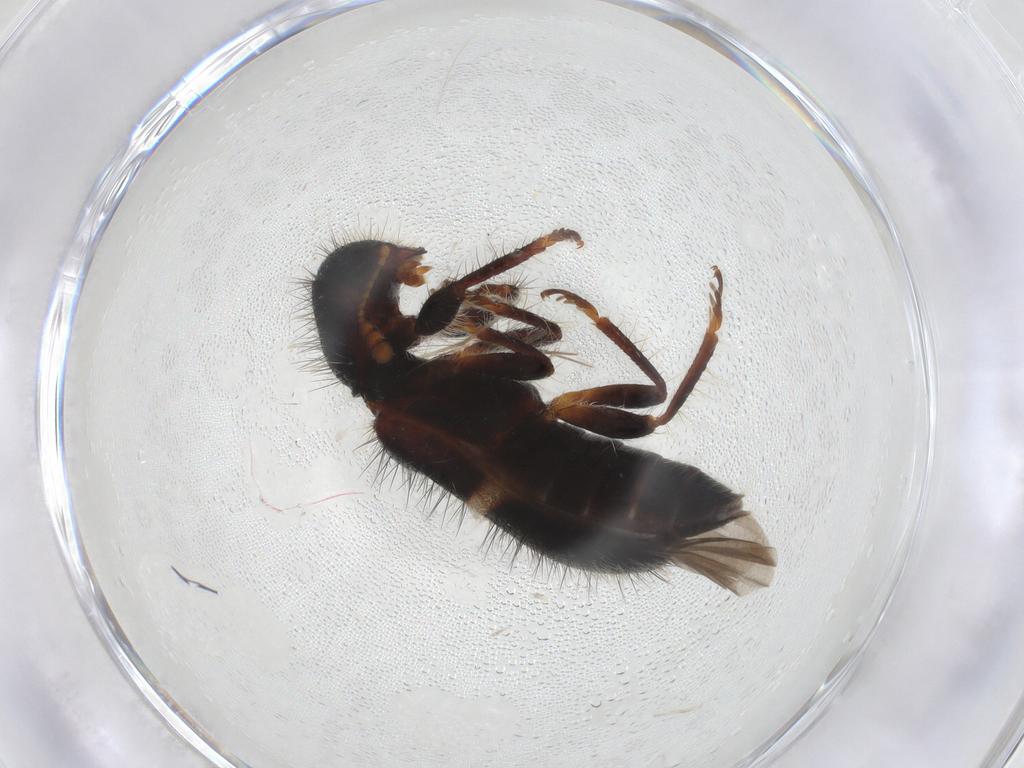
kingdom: Animalia
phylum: Arthropoda
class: Insecta
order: Coleoptera
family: Cleridae
